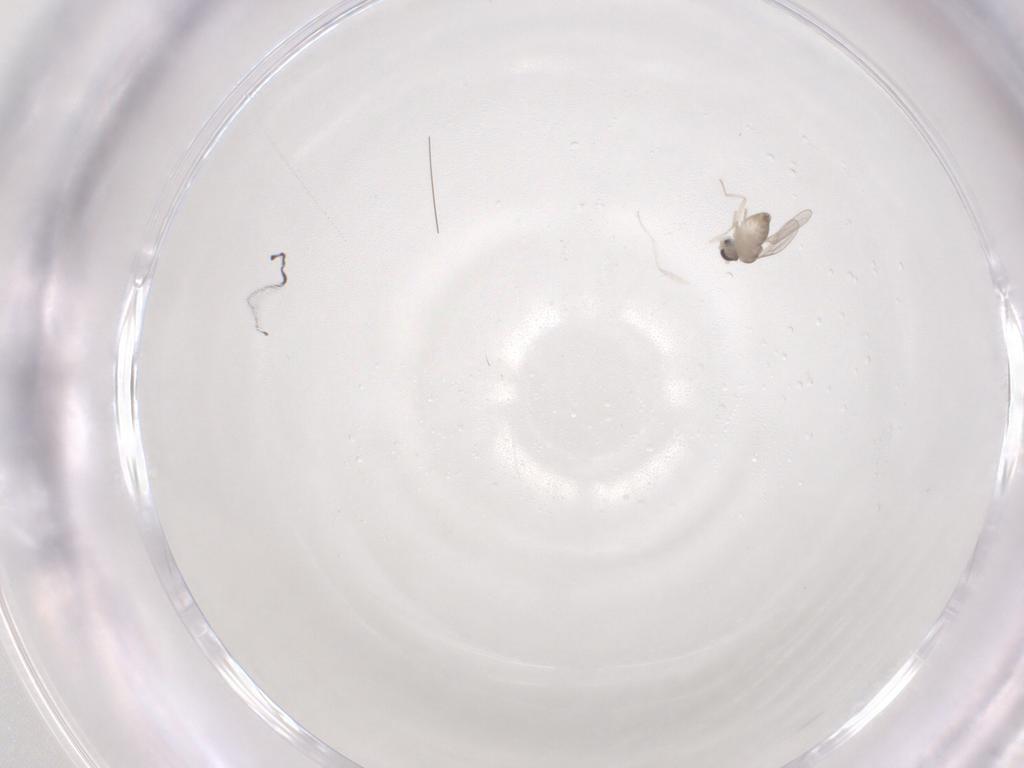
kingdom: Animalia
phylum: Arthropoda
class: Insecta
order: Diptera
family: Cecidomyiidae
